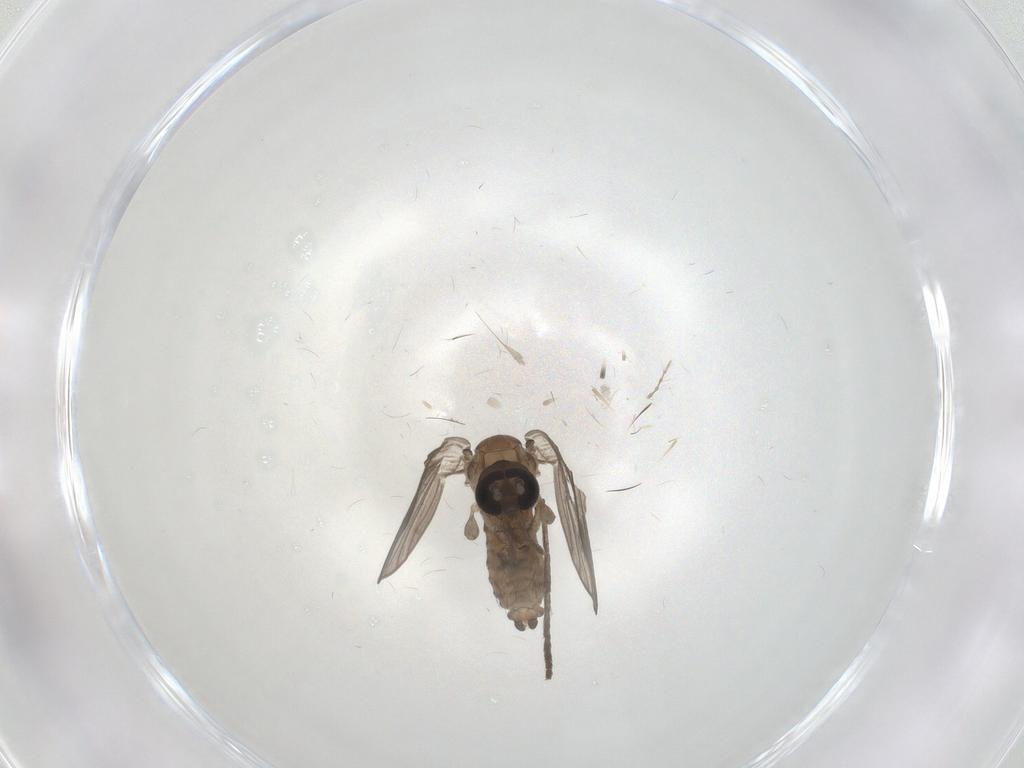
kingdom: Animalia
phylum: Arthropoda
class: Insecta
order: Diptera
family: Psychodidae
